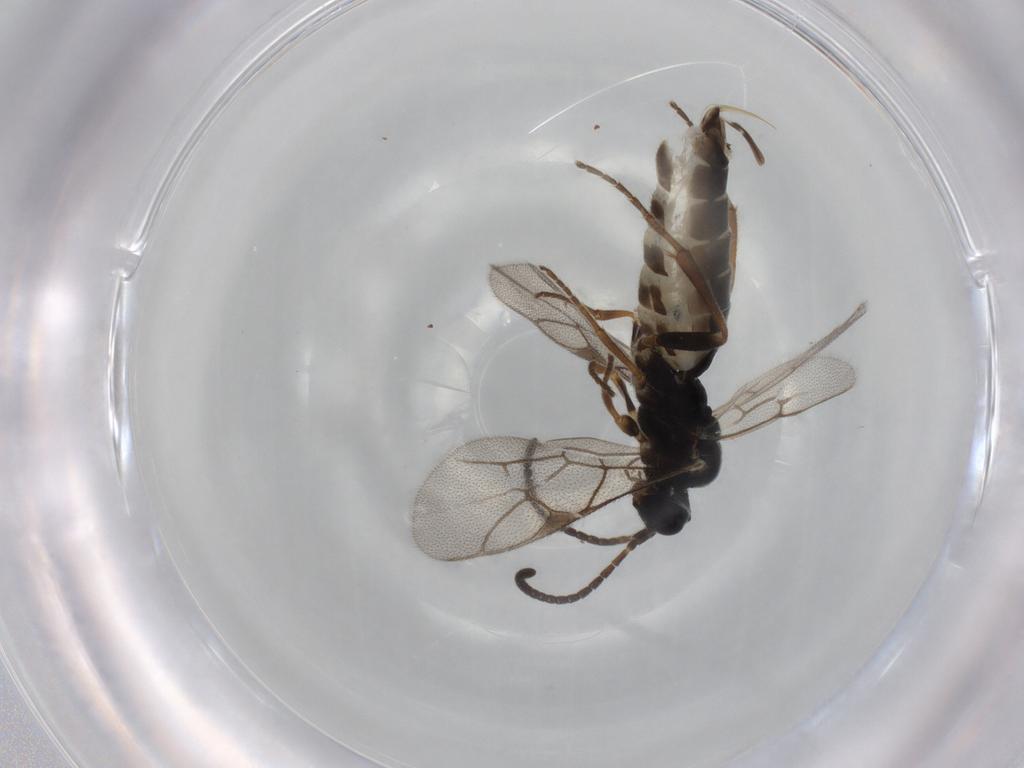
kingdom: Animalia
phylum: Arthropoda
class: Insecta
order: Hymenoptera
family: Ichneumonidae
